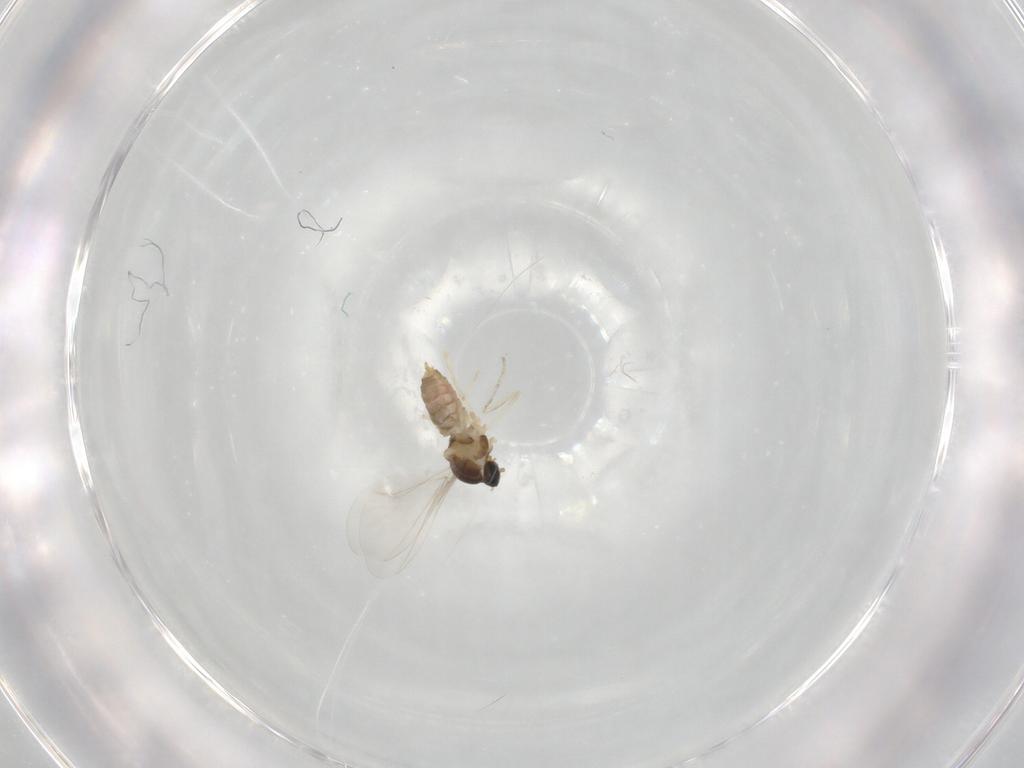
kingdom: Animalia
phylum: Arthropoda
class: Insecta
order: Diptera
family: Cecidomyiidae
